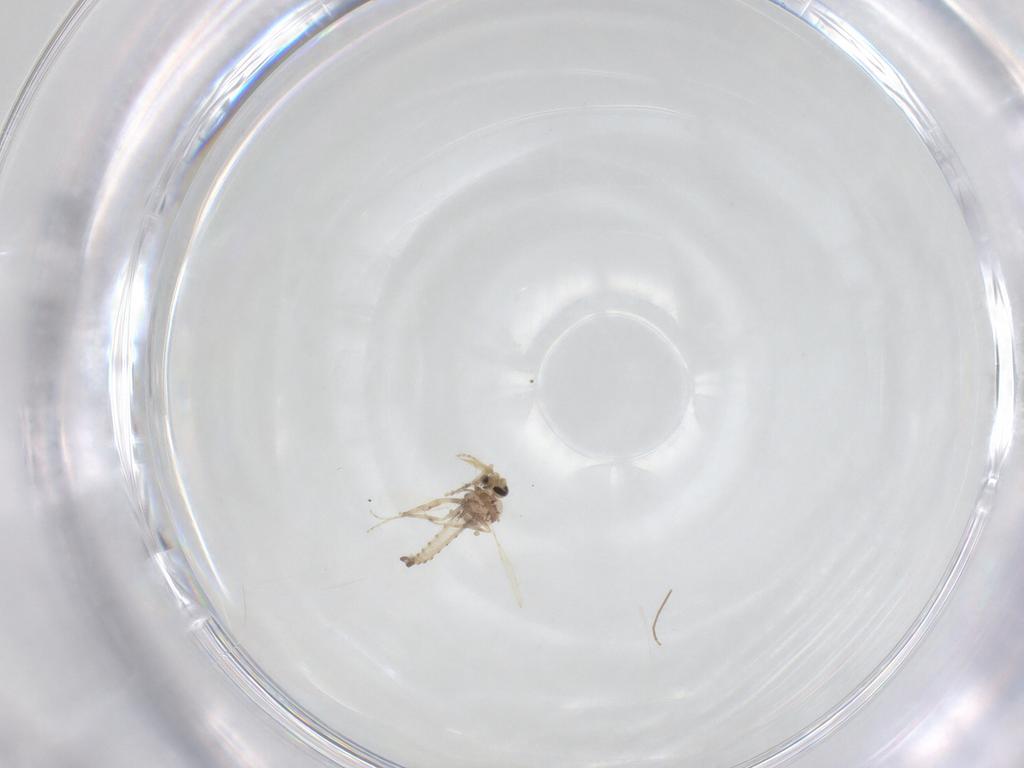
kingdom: Animalia
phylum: Arthropoda
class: Insecta
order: Diptera
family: Chironomidae
